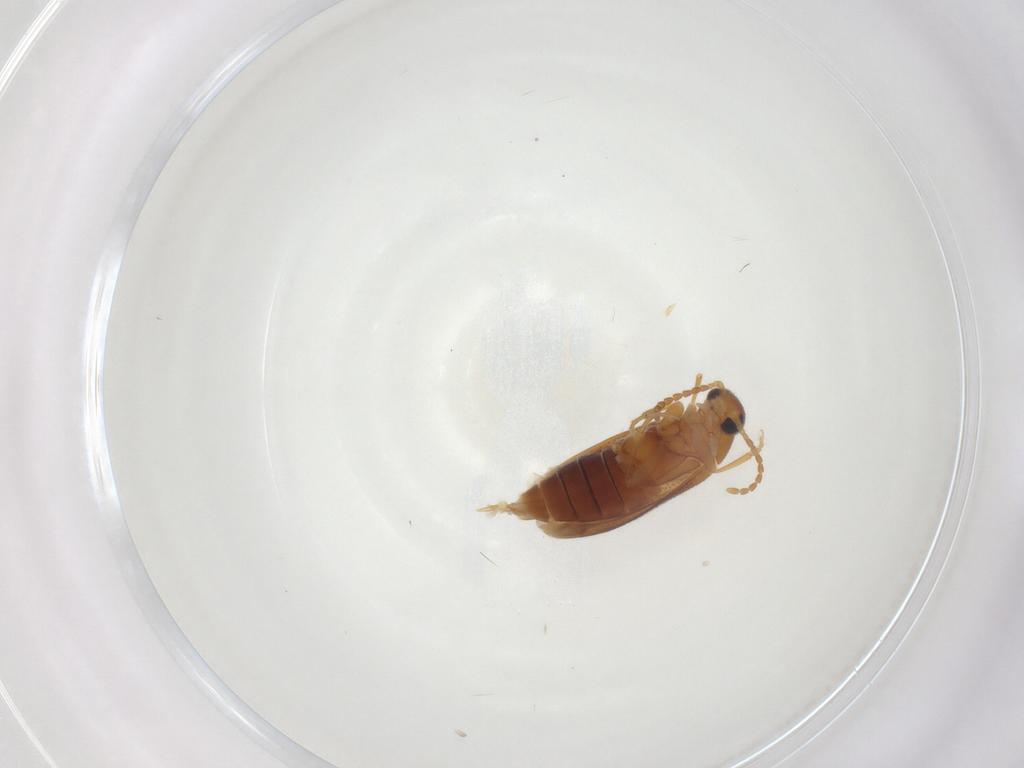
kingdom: Animalia
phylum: Arthropoda
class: Insecta
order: Coleoptera
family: Scraptiidae
